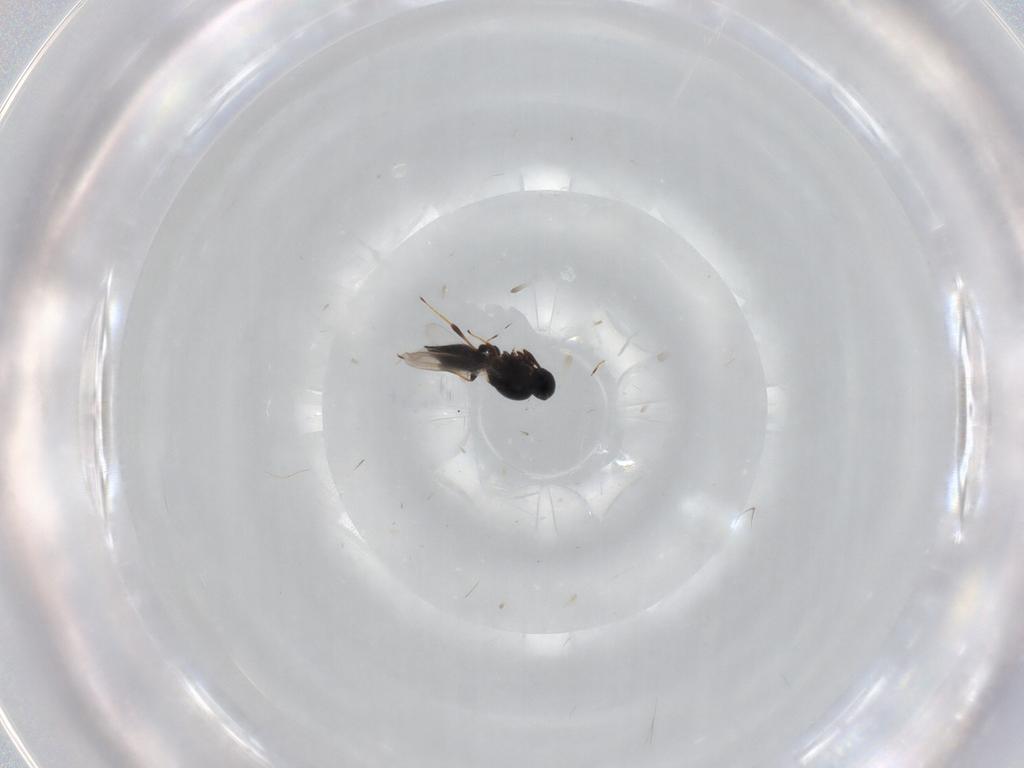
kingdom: Animalia
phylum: Arthropoda
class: Insecta
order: Hymenoptera
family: Platygastridae
